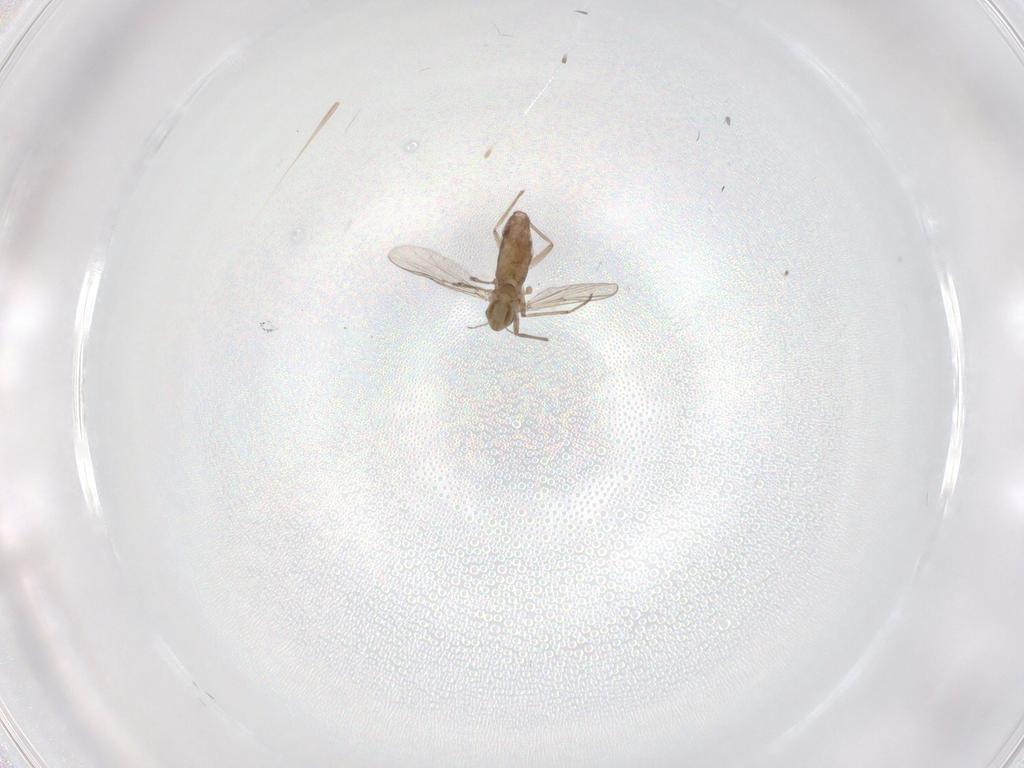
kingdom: Animalia
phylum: Arthropoda
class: Insecta
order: Diptera
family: Chironomidae
